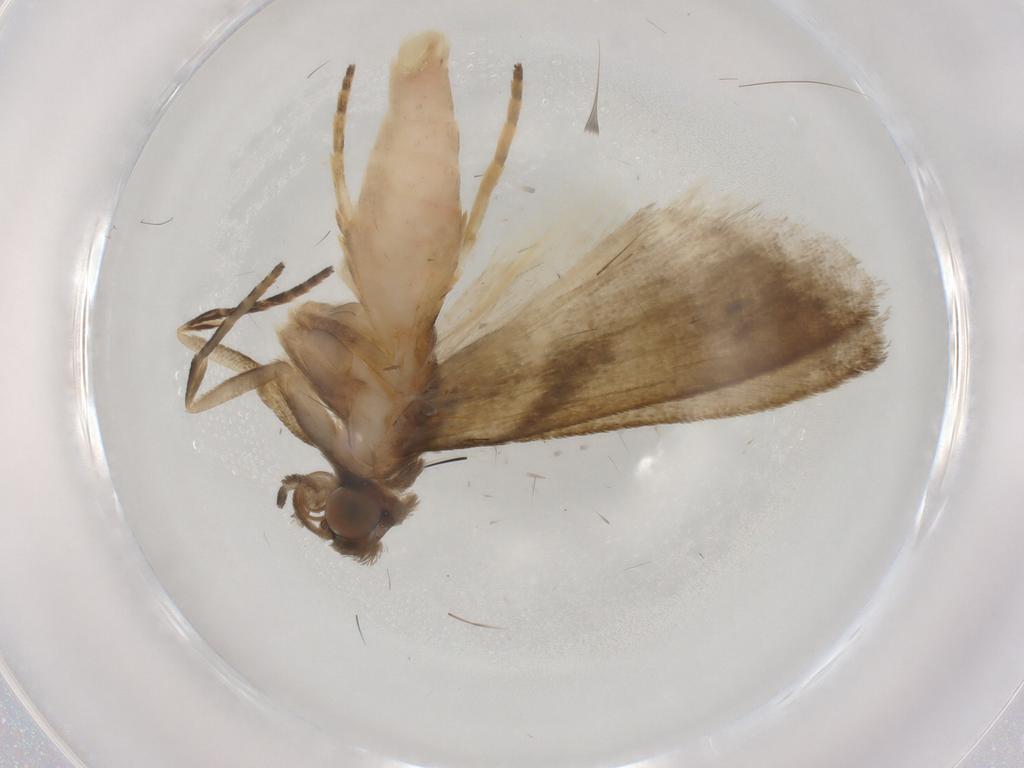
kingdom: Animalia
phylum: Arthropoda
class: Insecta
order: Lepidoptera
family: Noctuidae
